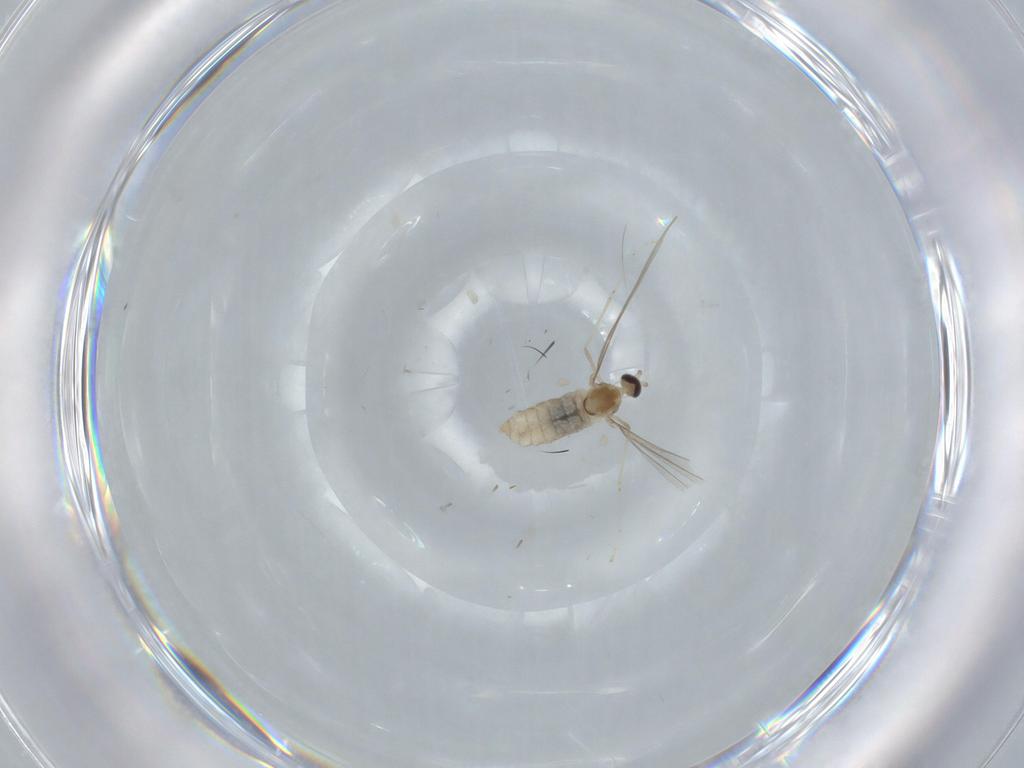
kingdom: Animalia
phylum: Arthropoda
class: Insecta
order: Diptera
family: Cecidomyiidae
